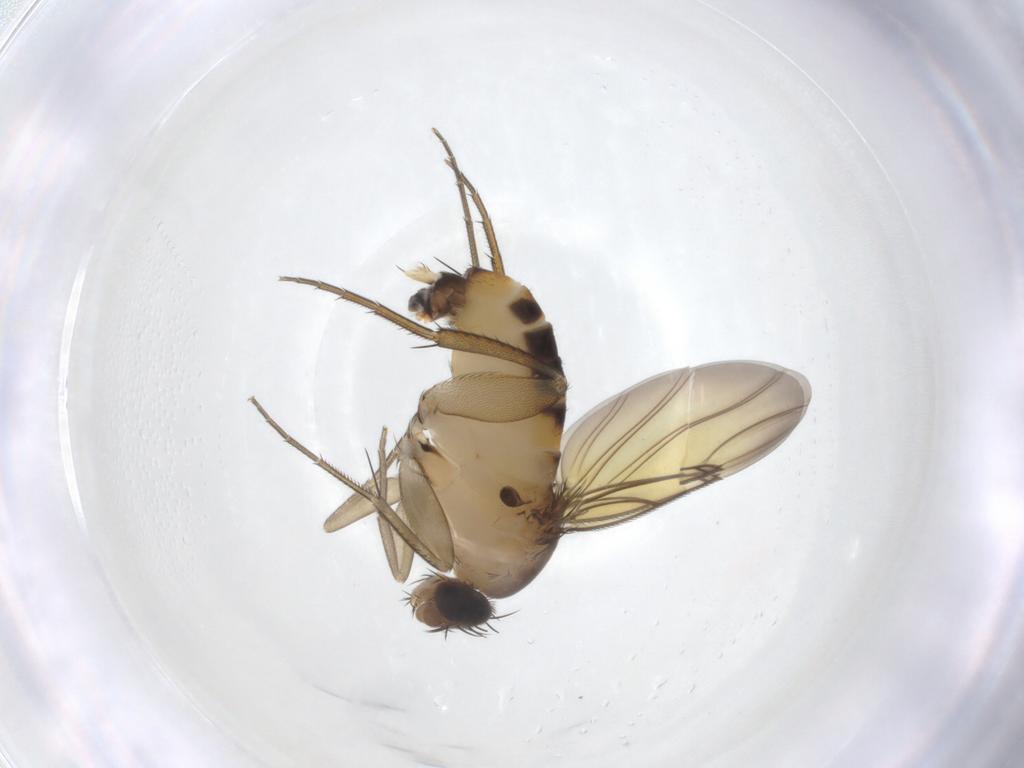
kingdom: Animalia
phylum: Arthropoda
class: Insecta
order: Diptera
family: Phoridae
